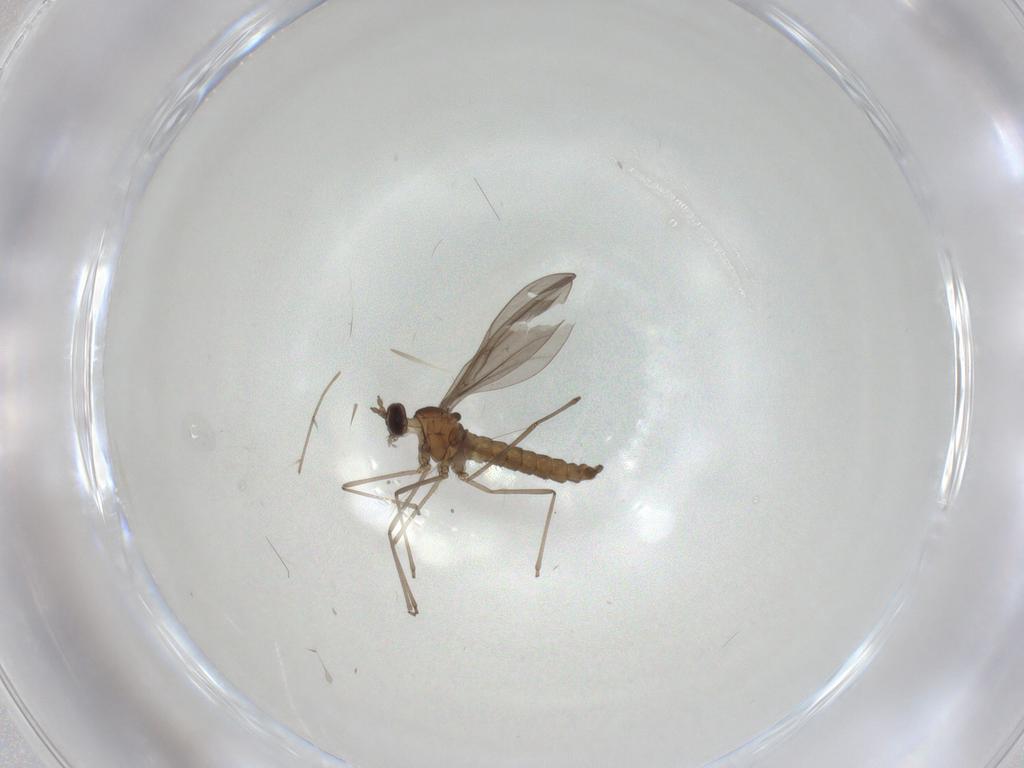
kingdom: Animalia
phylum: Arthropoda
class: Insecta
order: Diptera
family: Cecidomyiidae
